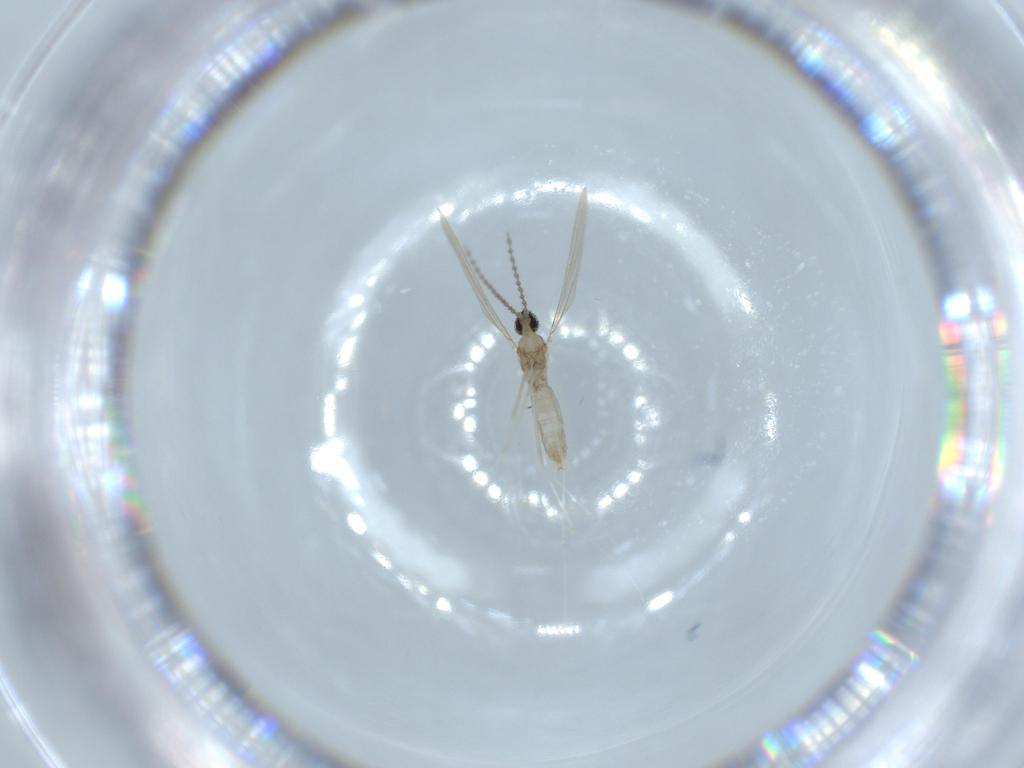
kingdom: Animalia
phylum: Arthropoda
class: Insecta
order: Diptera
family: Cecidomyiidae
